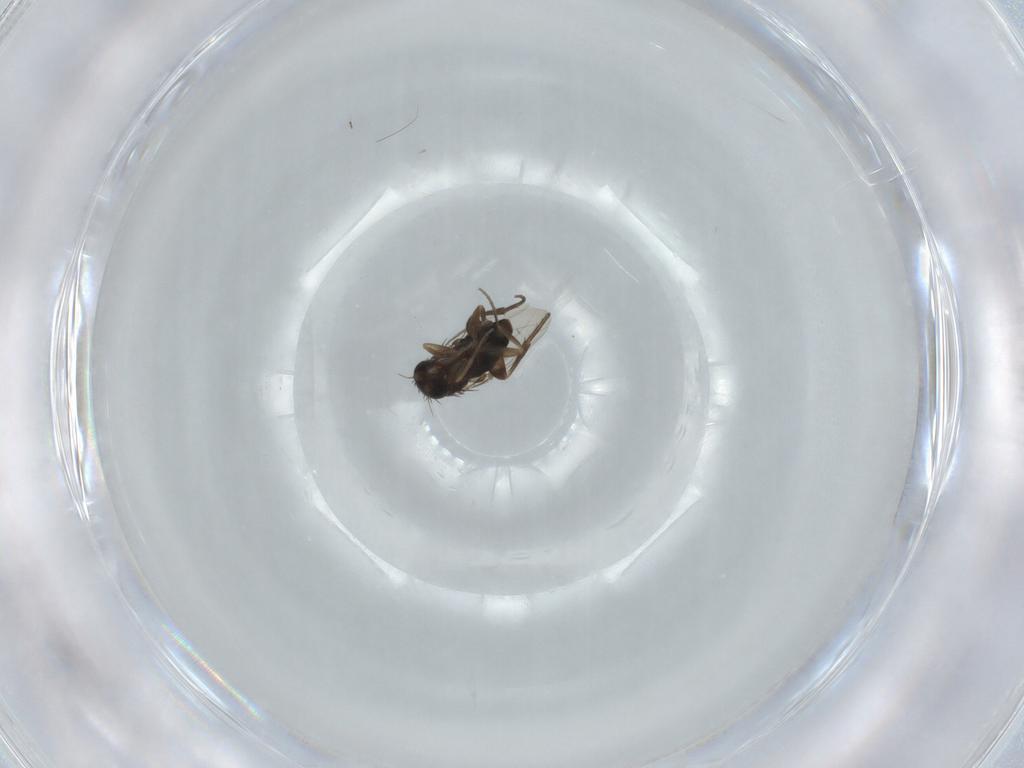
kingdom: Animalia
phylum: Arthropoda
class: Insecta
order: Diptera
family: Phoridae
